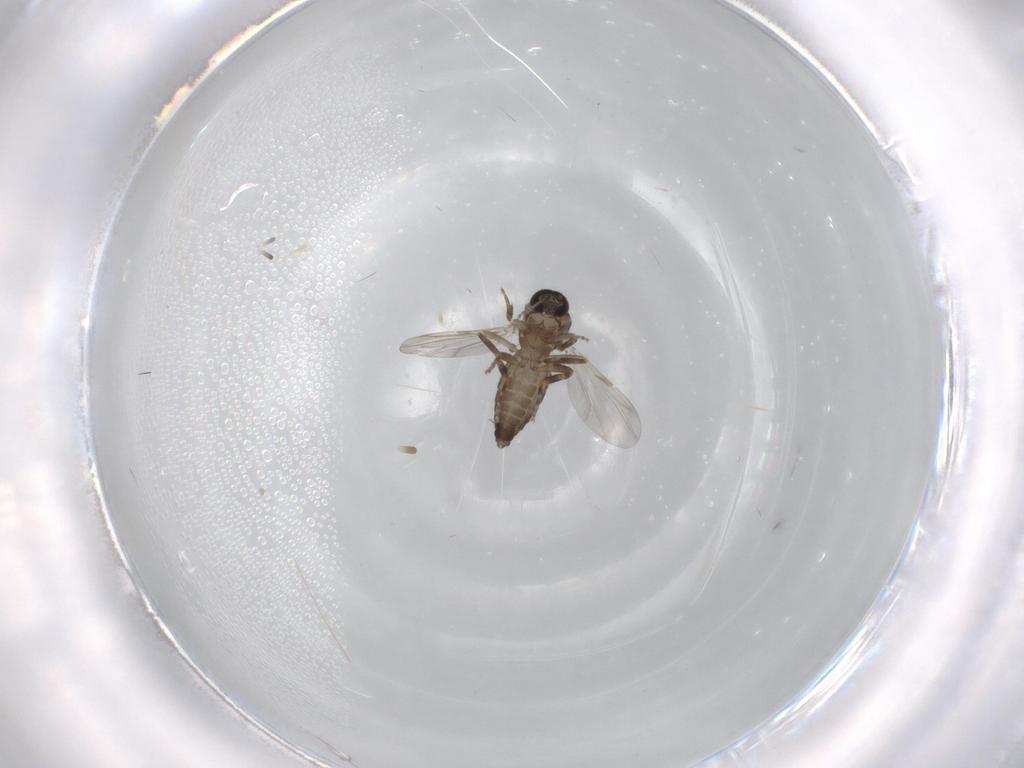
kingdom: Animalia
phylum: Arthropoda
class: Insecta
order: Diptera
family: Ceratopogonidae
